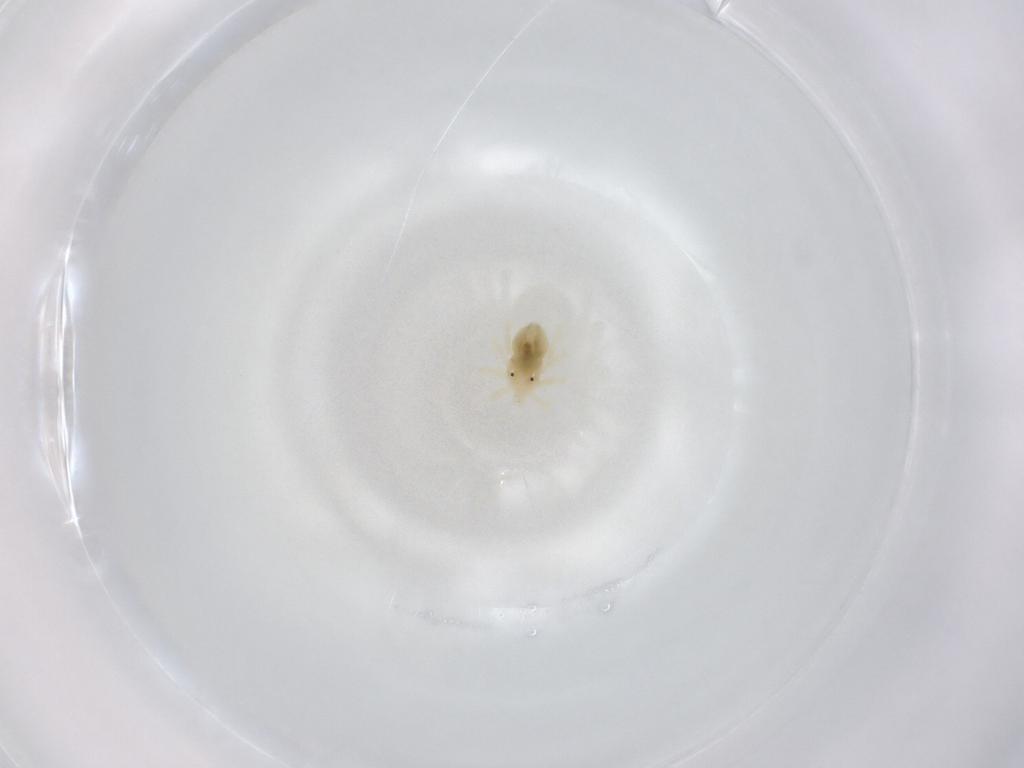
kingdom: Animalia
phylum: Arthropoda
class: Arachnida
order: Trombidiformes
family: Anystidae
